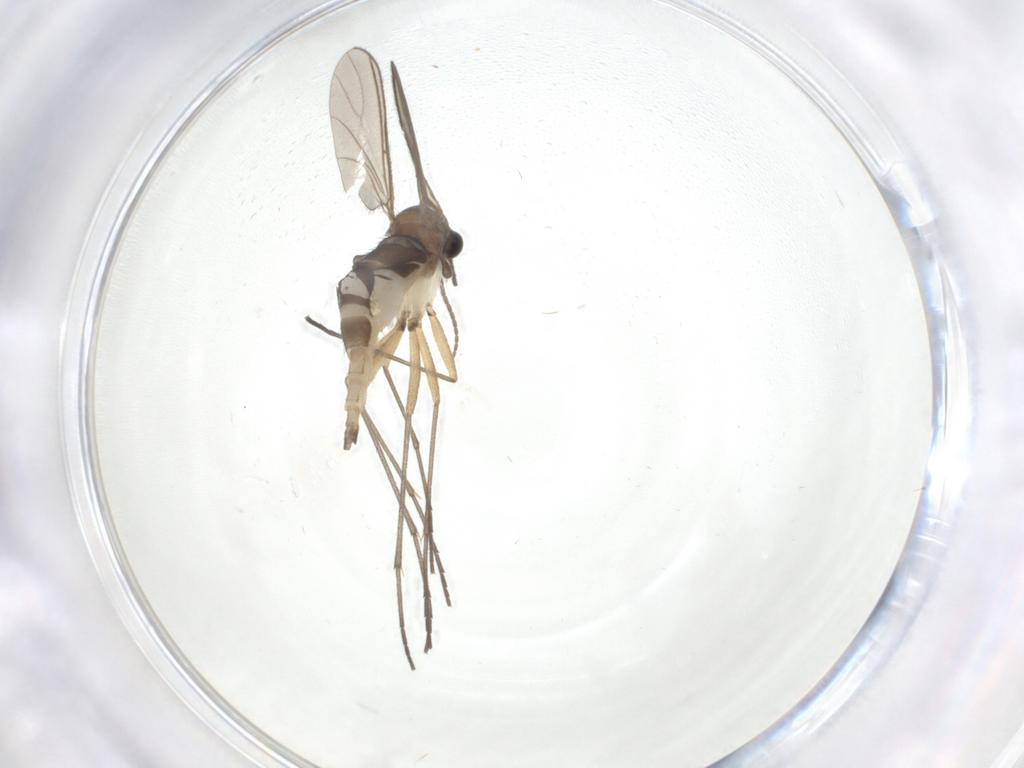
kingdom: Animalia
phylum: Arthropoda
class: Insecta
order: Diptera
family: Sciaridae
